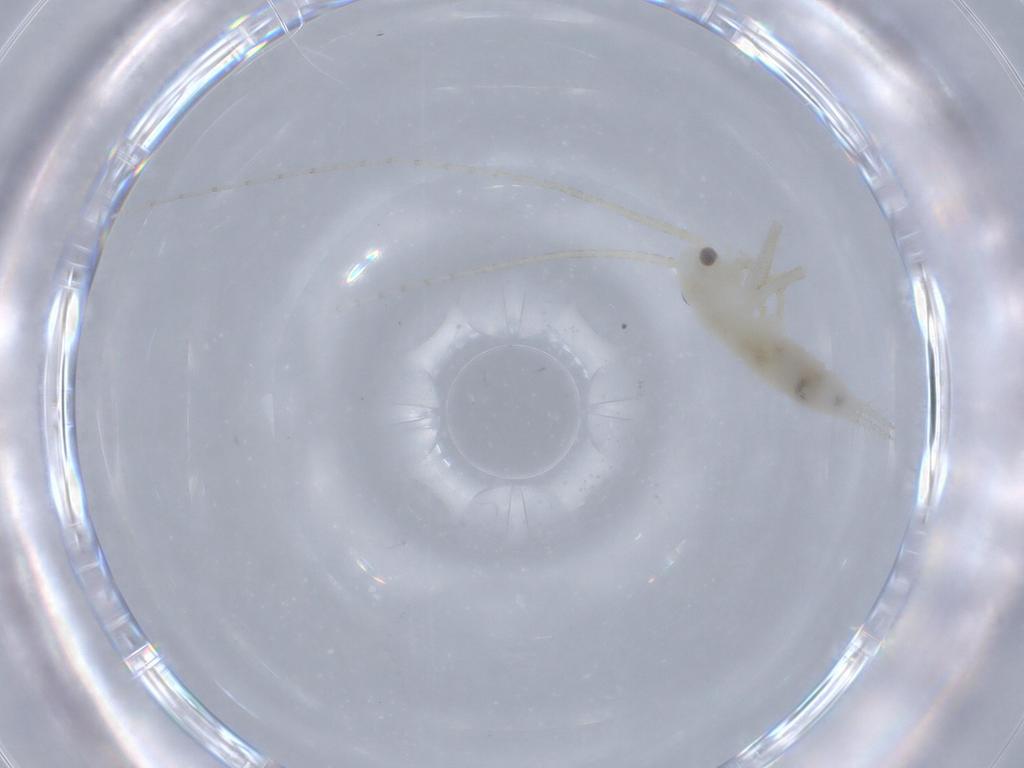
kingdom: Animalia
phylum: Arthropoda
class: Insecta
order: Orthoptera
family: Trigonidiidae
